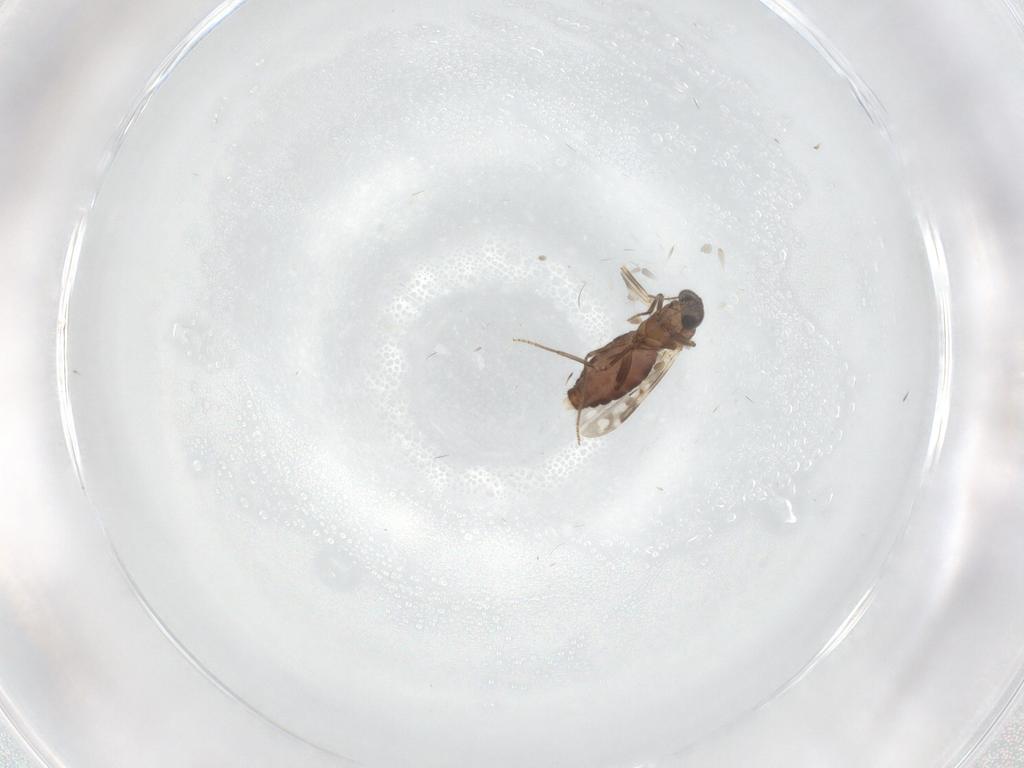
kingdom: Animalia
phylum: Arthropoda
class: Insecta
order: Diptera
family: Ceratopogonidae
